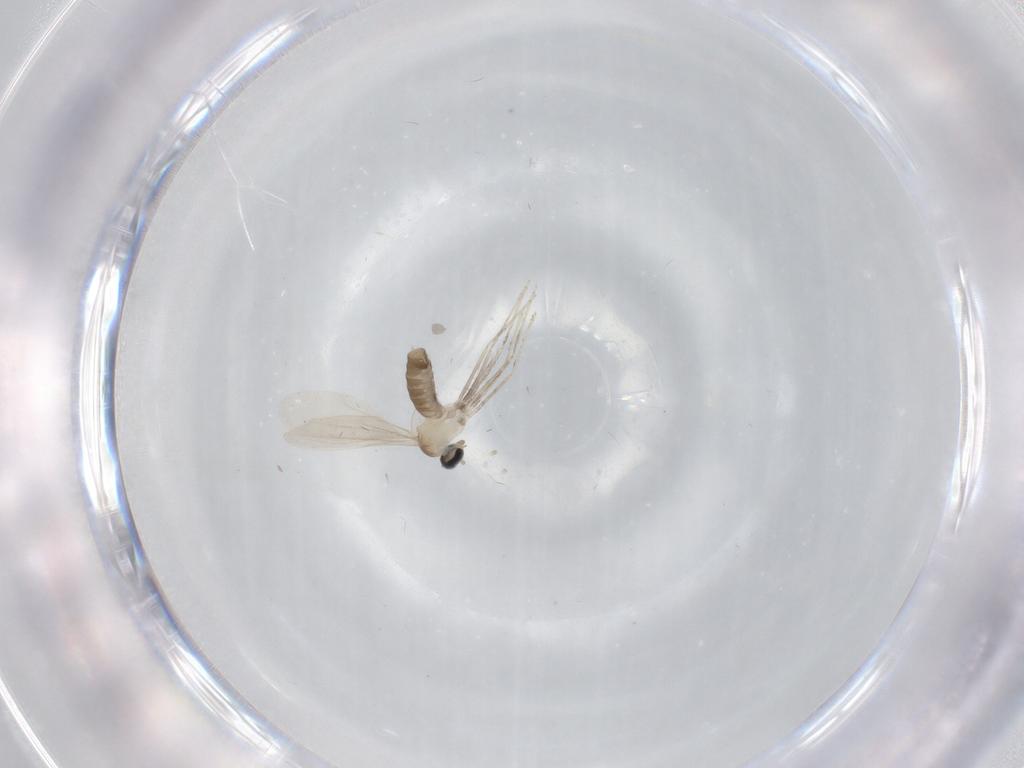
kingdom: Animalia
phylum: Arthropoda
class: Insecta
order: Diptera
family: Cecidomyiidae
